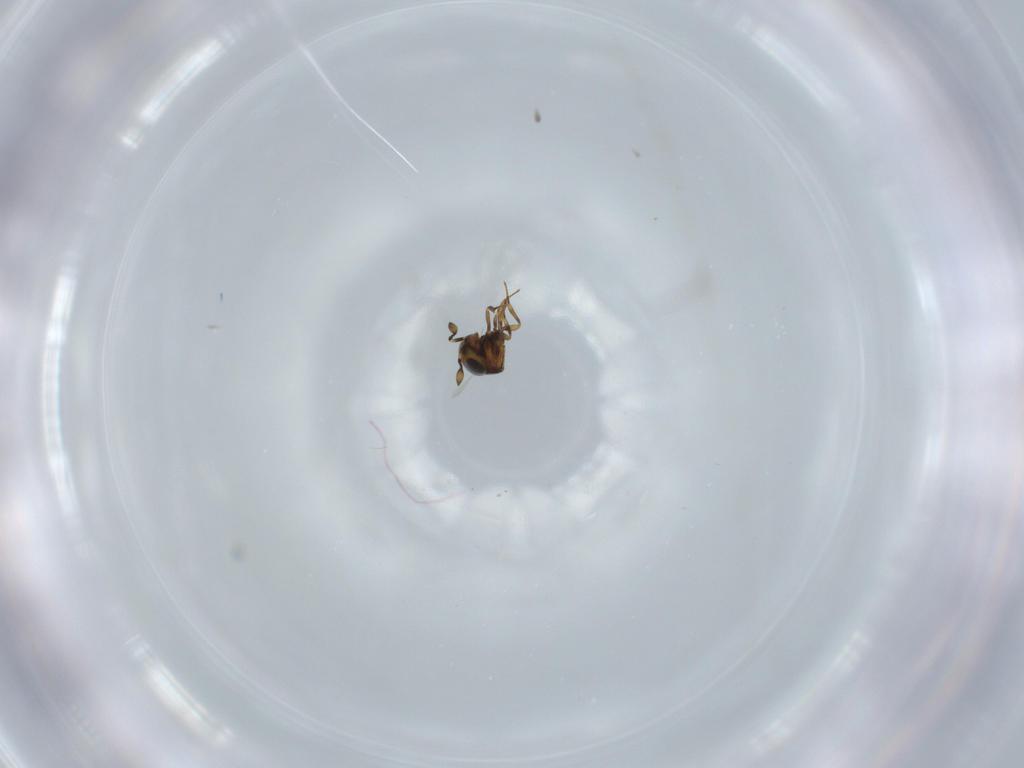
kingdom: Animalia
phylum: Arthropoda
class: Insecta
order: Hymenoptera
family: Scelionidae
